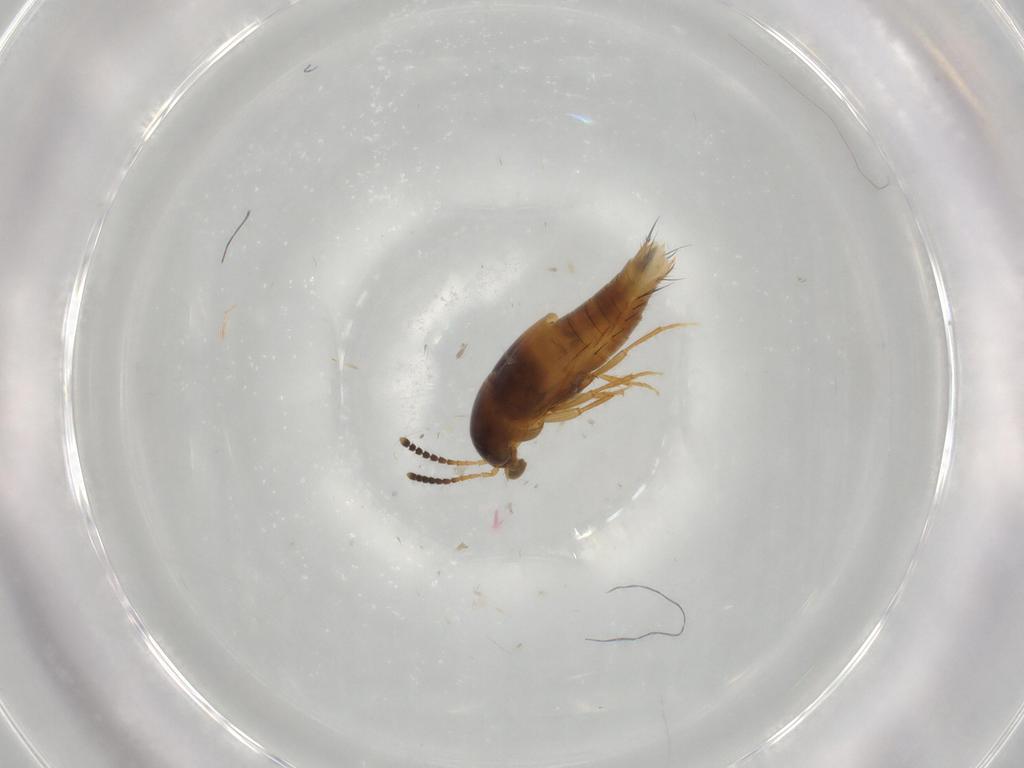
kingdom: Animalia
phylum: Arthropoda
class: Insecta
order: Coleoptera
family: Staphylinidae
